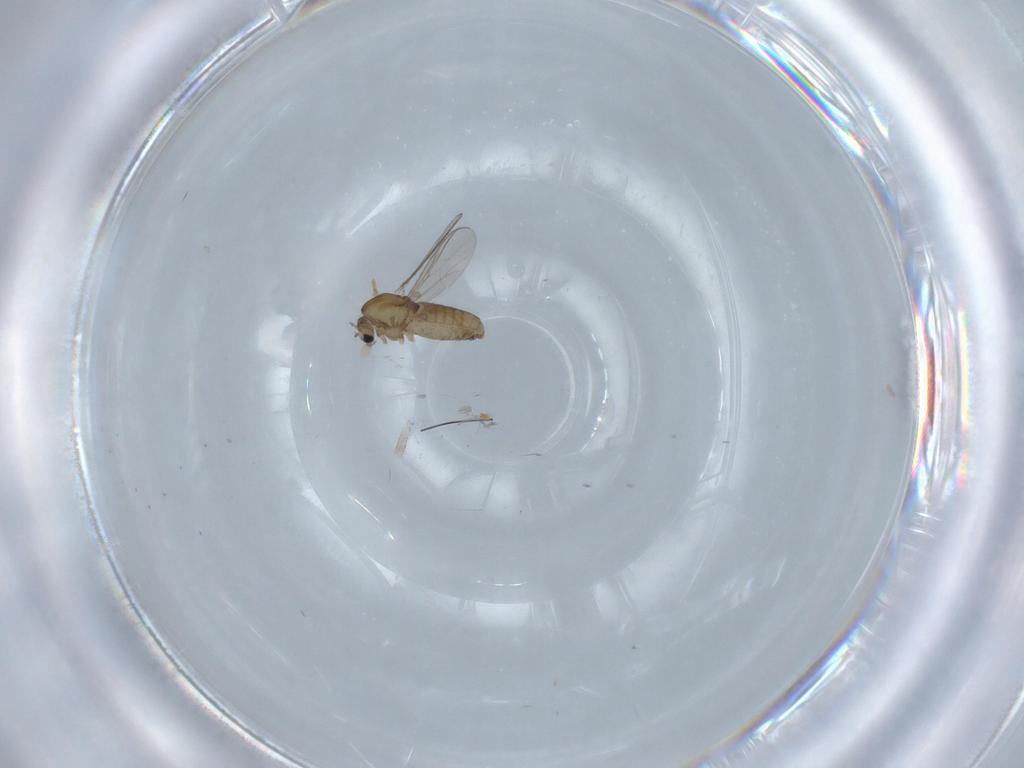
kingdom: Animalia
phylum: Arthropoda
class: Insecta
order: Diptera
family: Chironomidae
